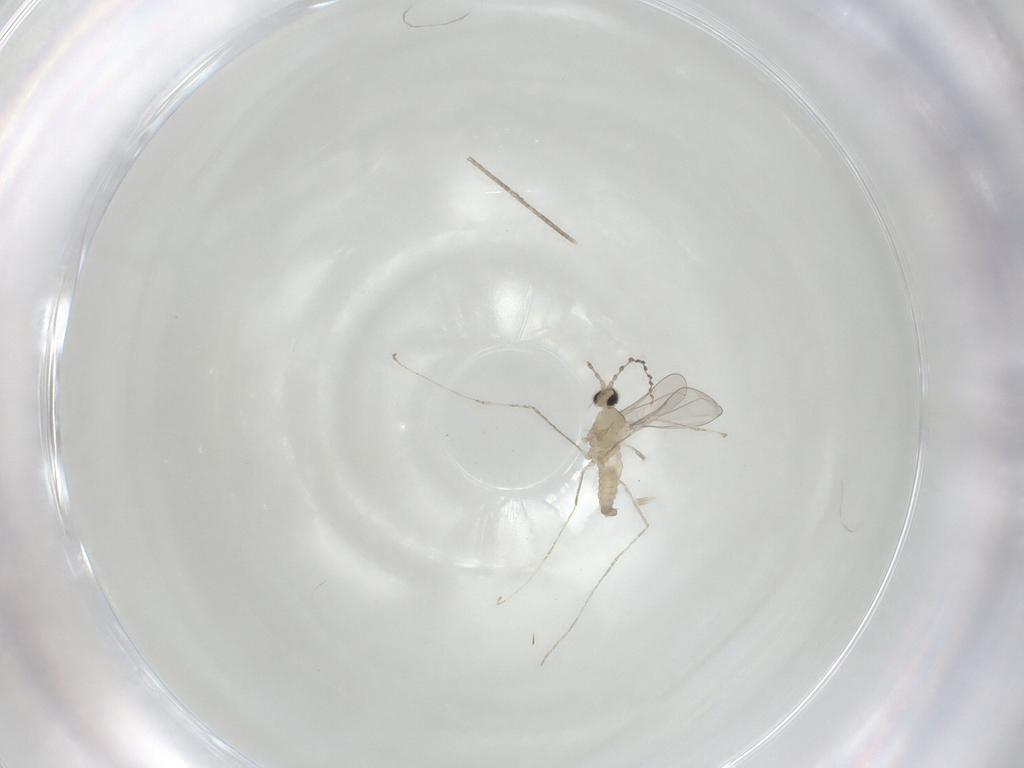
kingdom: Animalia
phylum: Arthropoda
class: Insecta
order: Diptera
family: Cecidomyiidae
